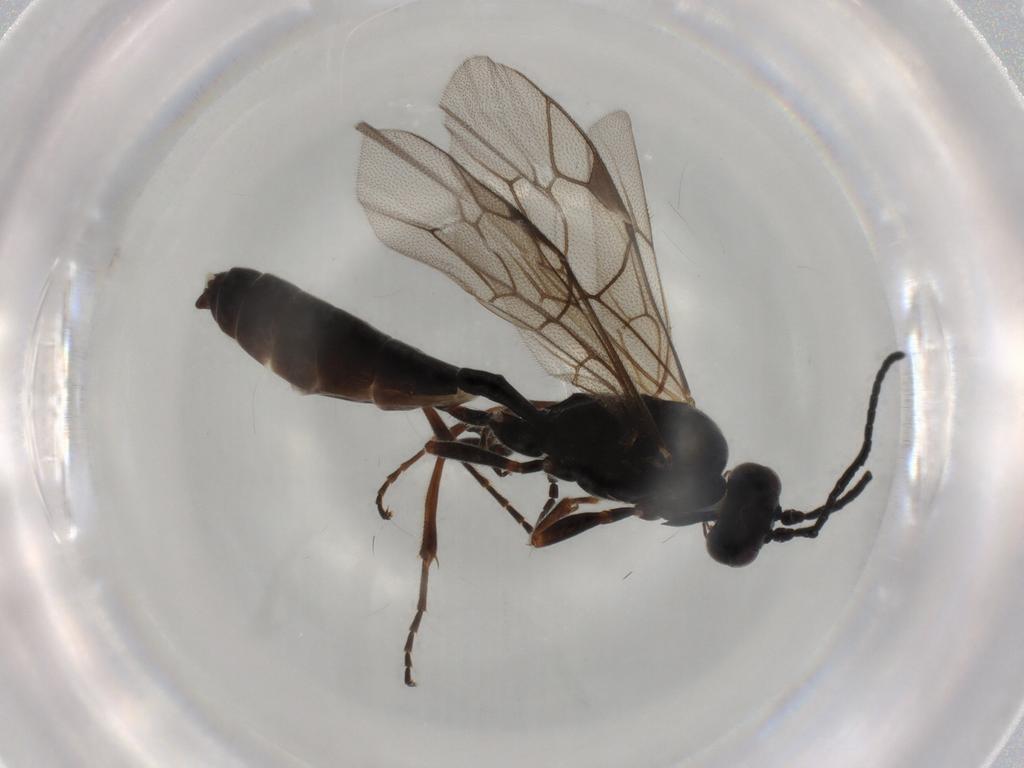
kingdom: Animalia
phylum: Arthropoda
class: Insecta
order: Hymenoptera
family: Ichneumonidae
